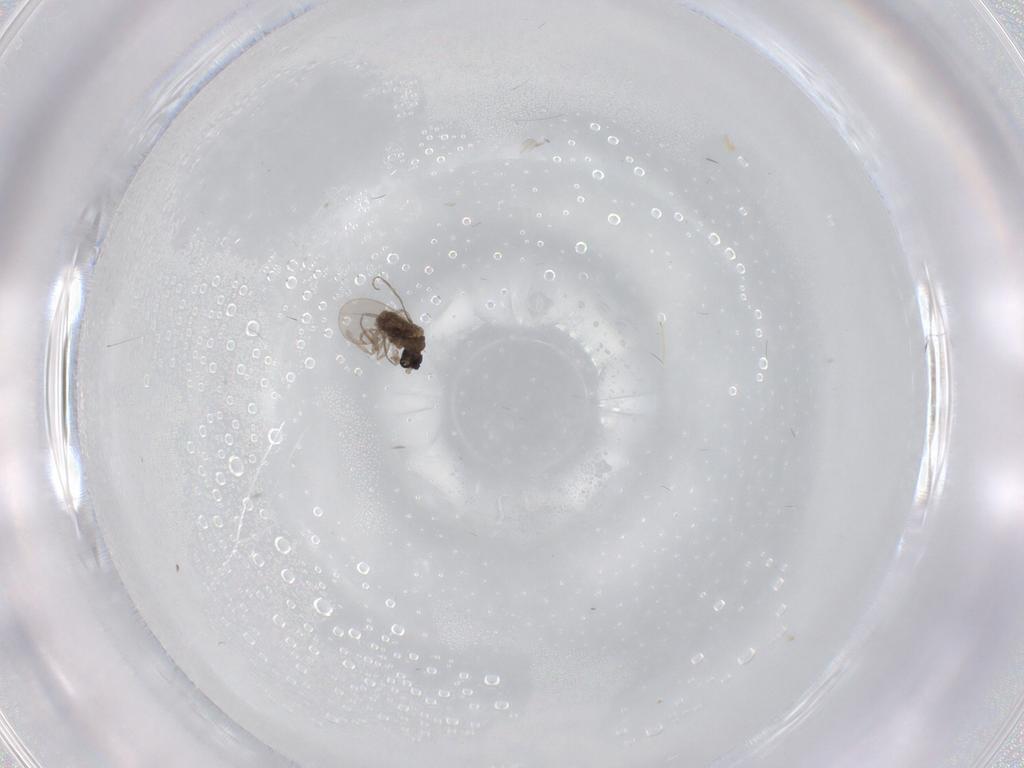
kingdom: Animalia
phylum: Arthropoda
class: Insecta
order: Diptera
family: Cecidomyiidae
